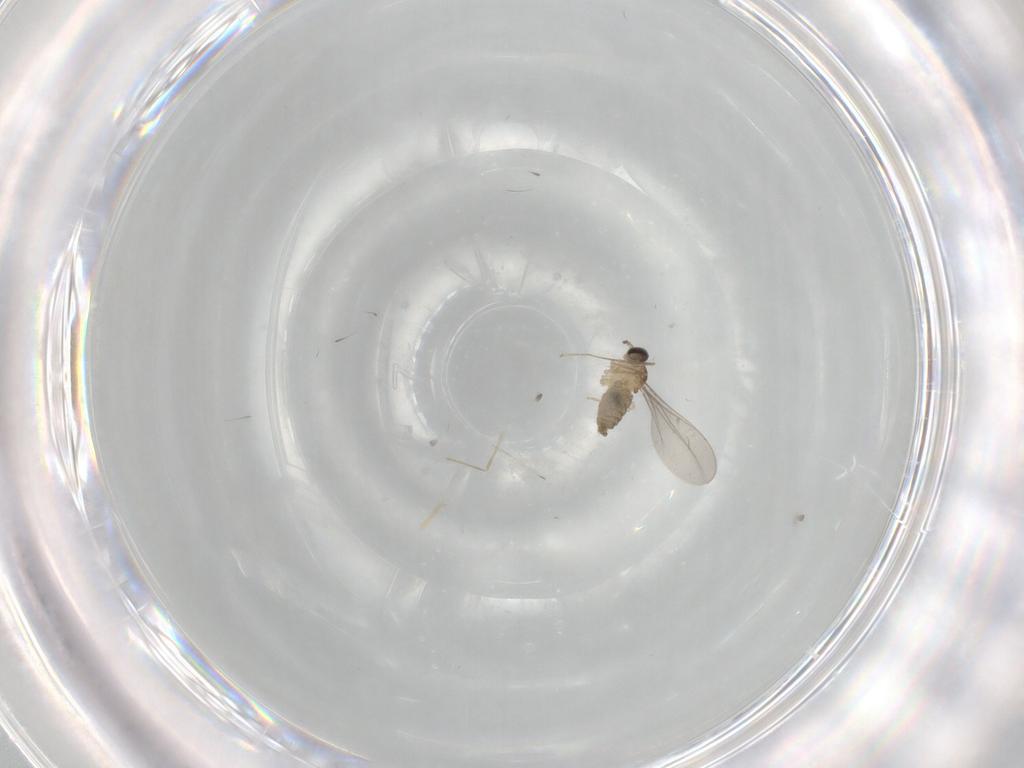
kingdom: Animalia
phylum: Arthropoda
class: Insecta
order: Diptera
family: Cecidomyiidae
